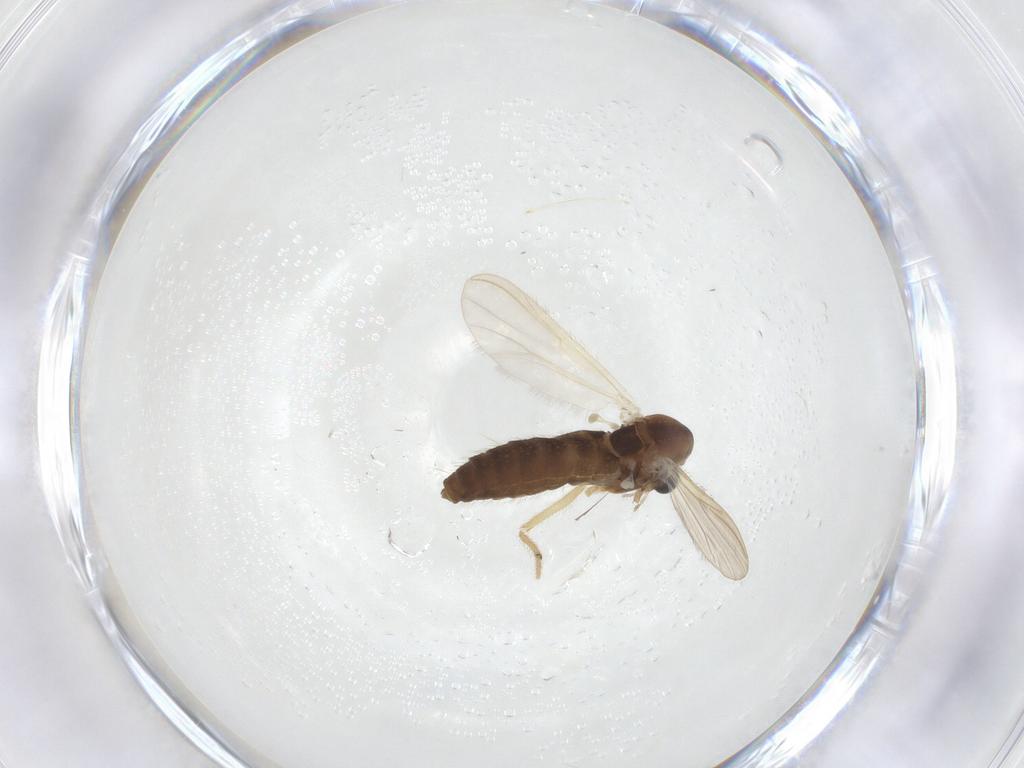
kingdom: Animalia
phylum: Arthropoda
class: Insecta
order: Diptera
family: Chironomidae
